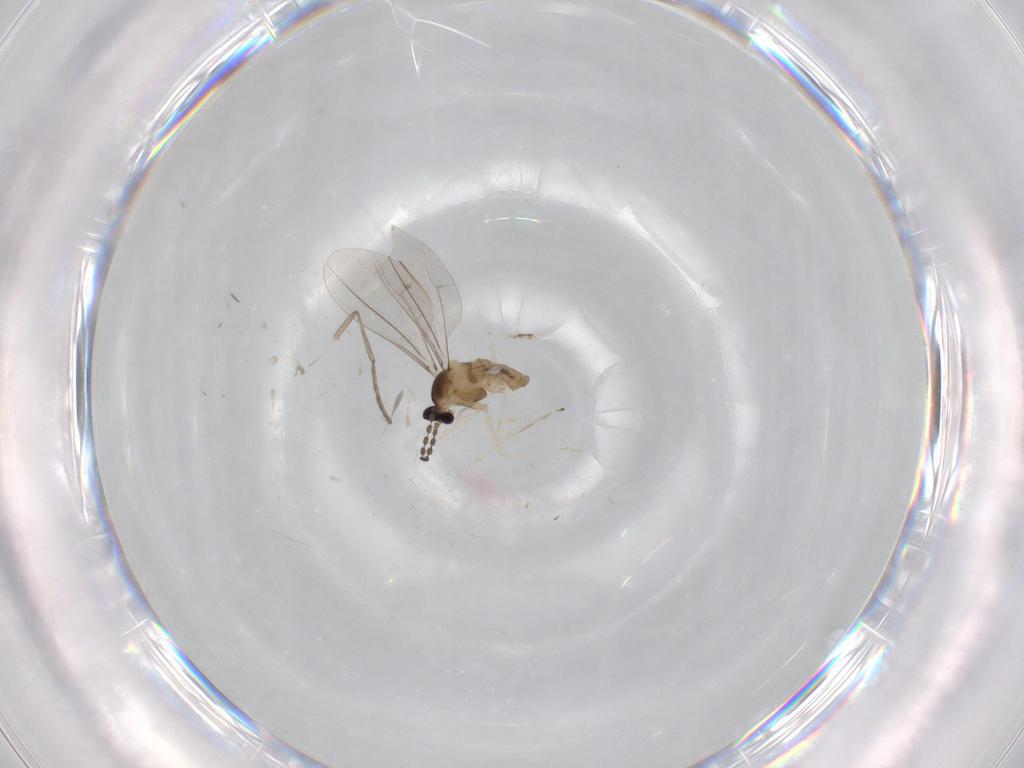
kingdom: Animalia
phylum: Arthropoda
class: Insecta
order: Diptera
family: Cecidomyiidae
